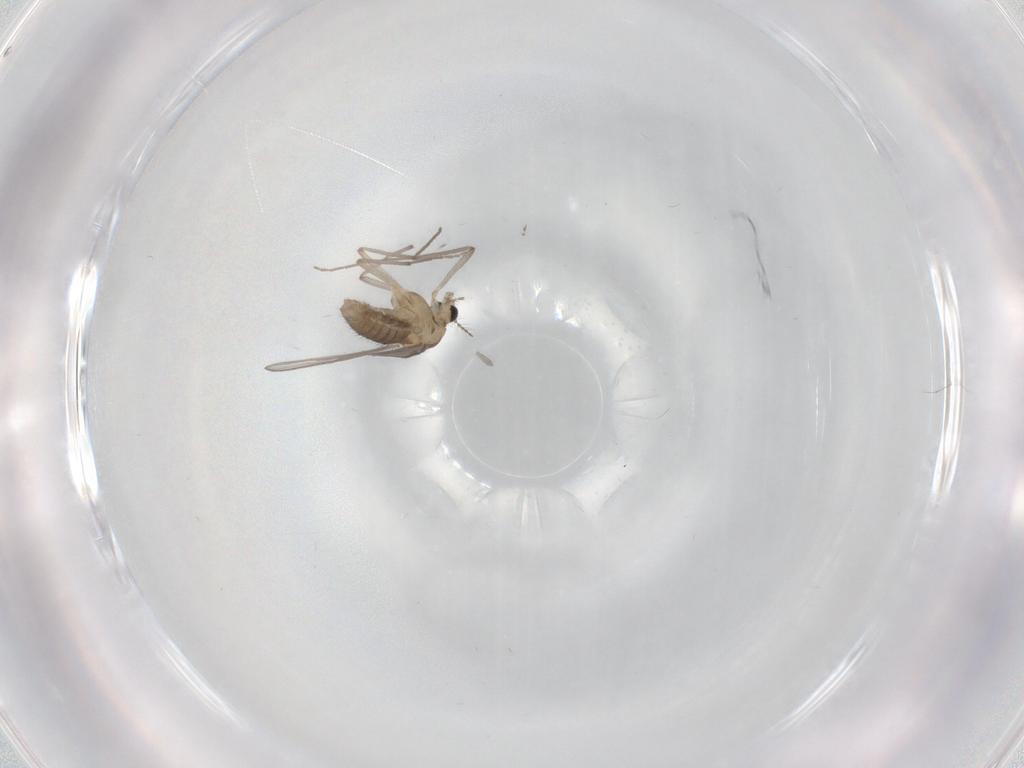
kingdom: Animalia
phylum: Arthropoda
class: Insecta
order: Diptera
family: Chironomidae
